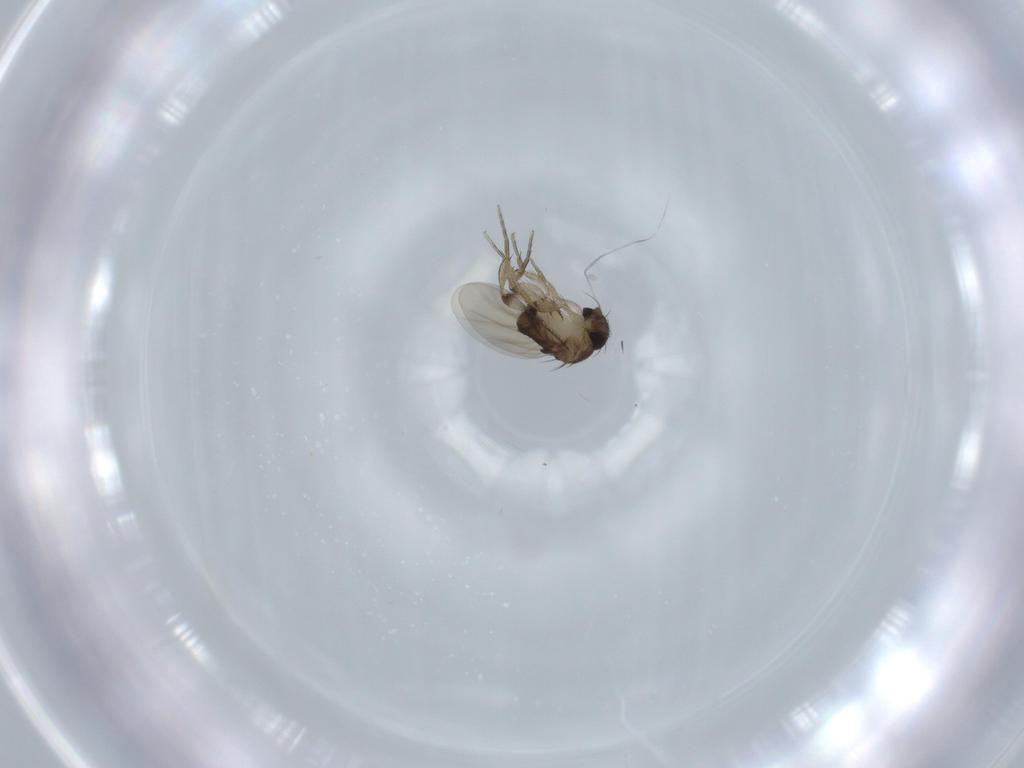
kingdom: Animalia
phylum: Arthropoda
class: Insecta
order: Diptera
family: Phoridae
